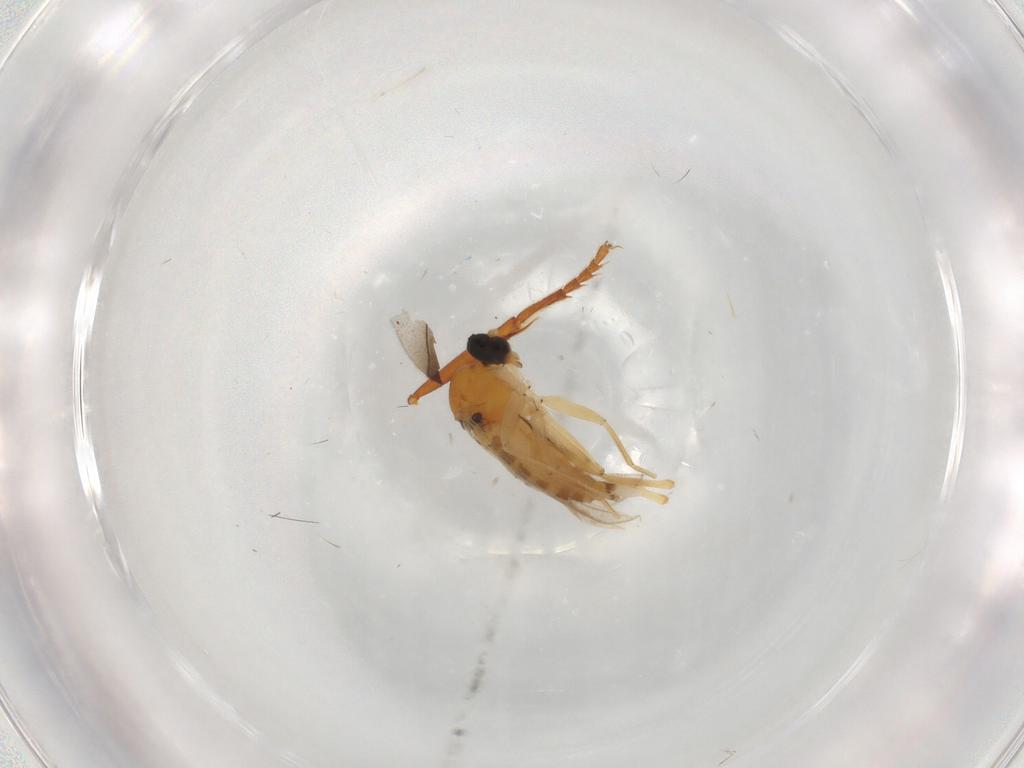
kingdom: Animalia
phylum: Arthropoda
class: Insecta
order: Diptera
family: Hybotidae
